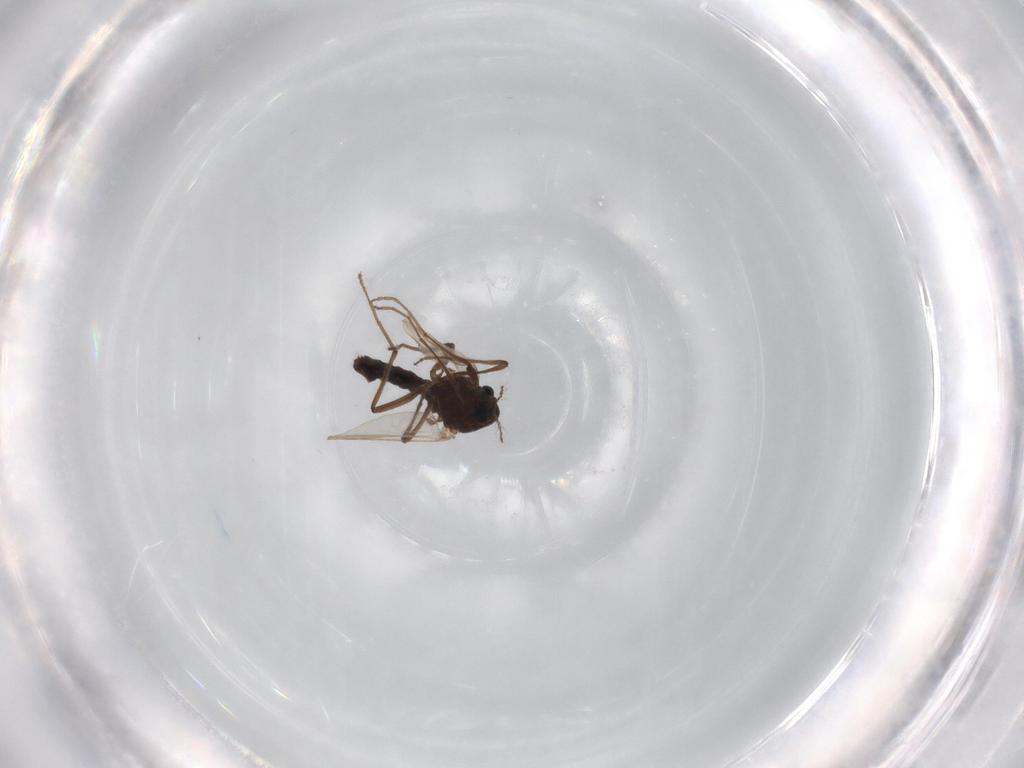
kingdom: Animalia
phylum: Arthropoda
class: Insecta
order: Diptera
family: Chironomidae
